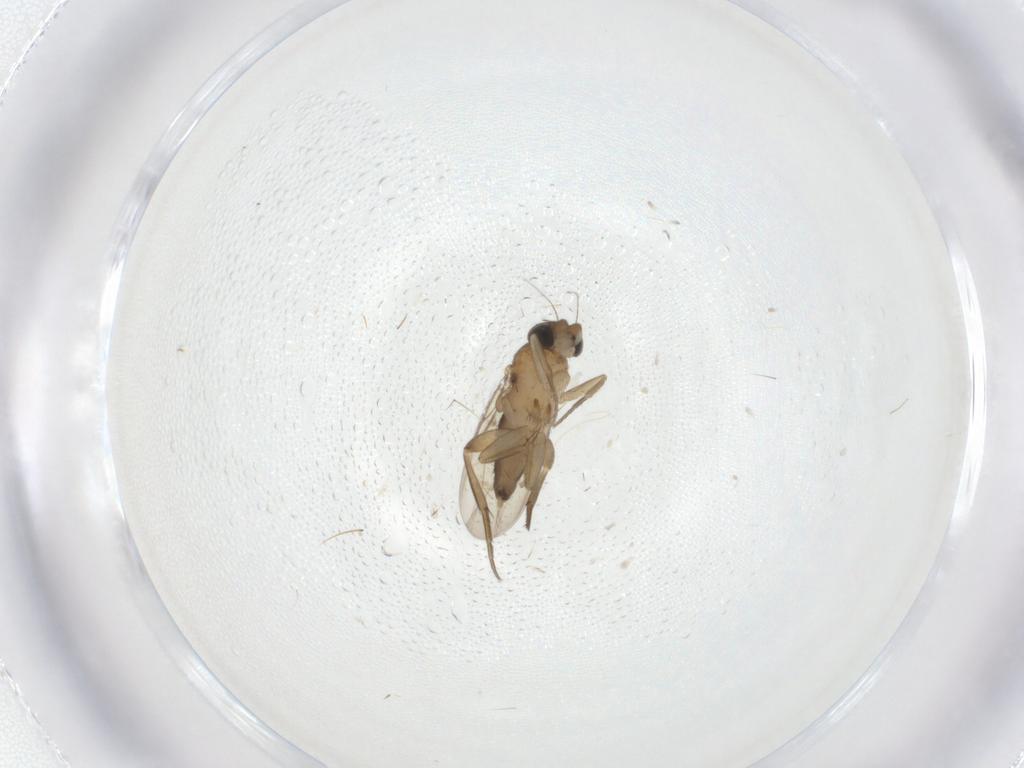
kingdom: Animalia
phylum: Arthropoda
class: Insecta
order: Diptera
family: Phoridae
